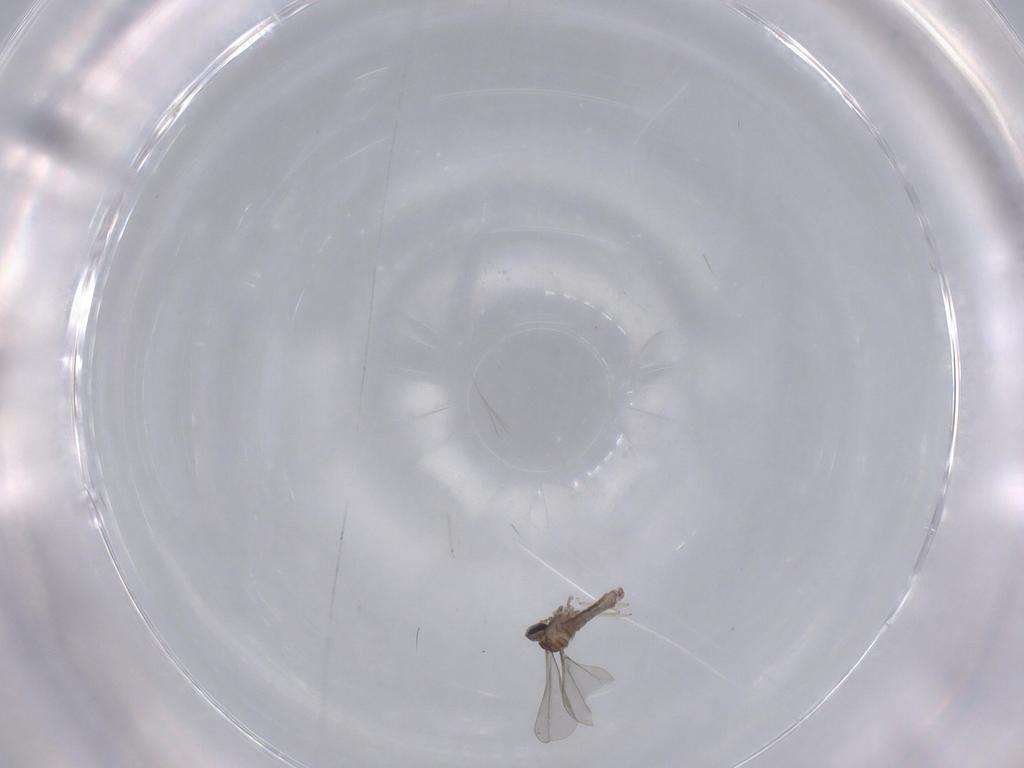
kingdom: Animalia
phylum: Arthropoda
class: Insecta
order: Diptera
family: Cecidomyiidae
